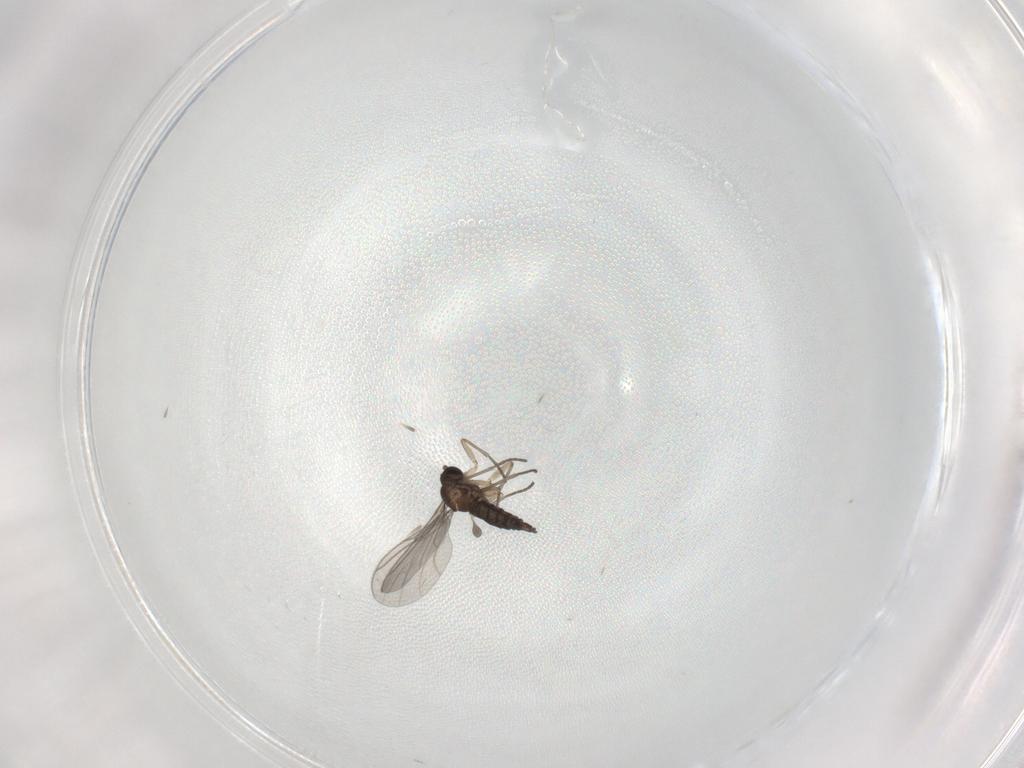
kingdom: Animalia
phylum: Arthropoda
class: Insecta
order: Diptera
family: Sciaridae
